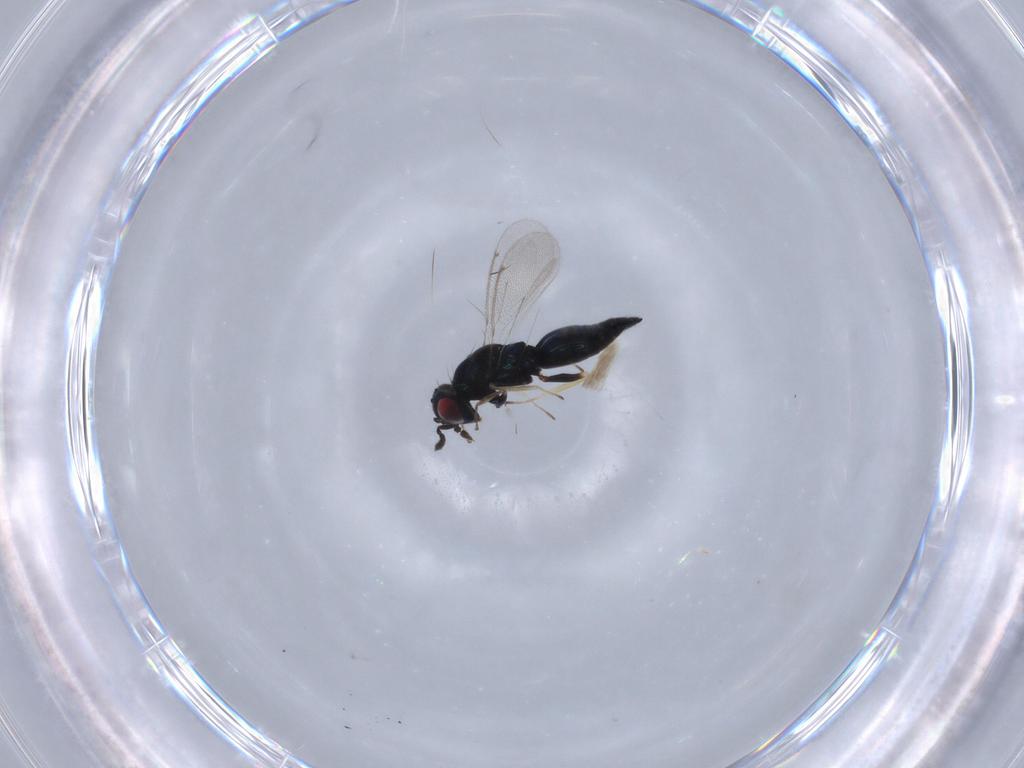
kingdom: Animalia
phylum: Arthropoda
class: Insecta
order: Hymenoptera
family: Eulophidae
